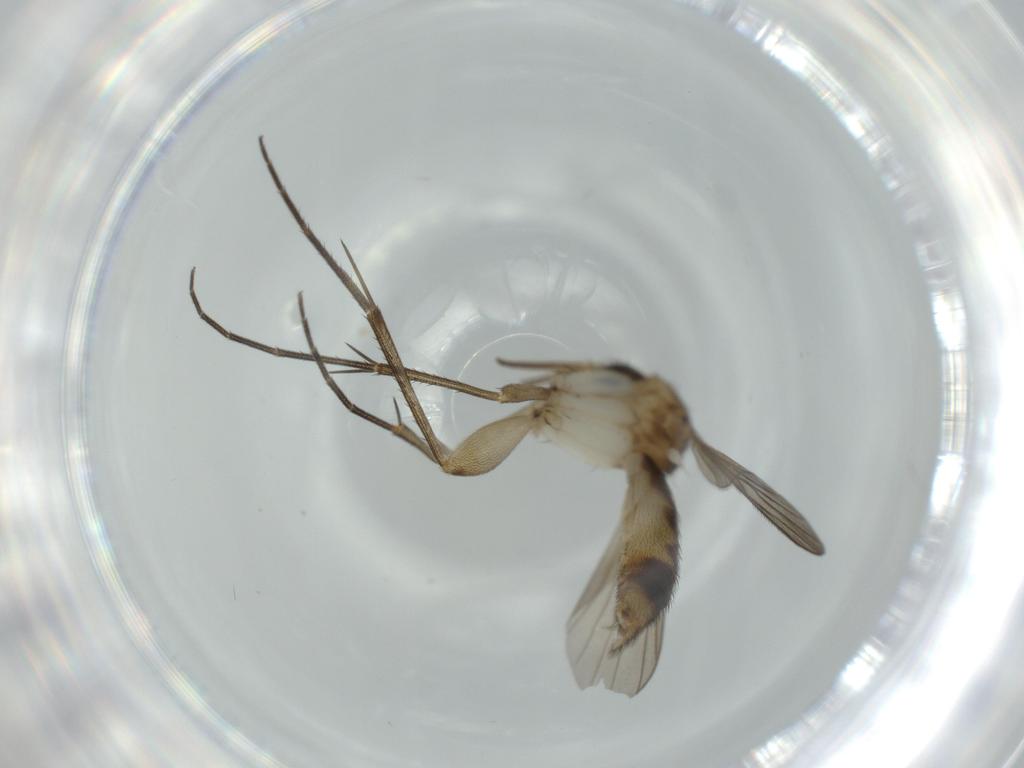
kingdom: Animalia
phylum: Arthropoda
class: Insecta
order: Diptera
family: Mycetophilidae
